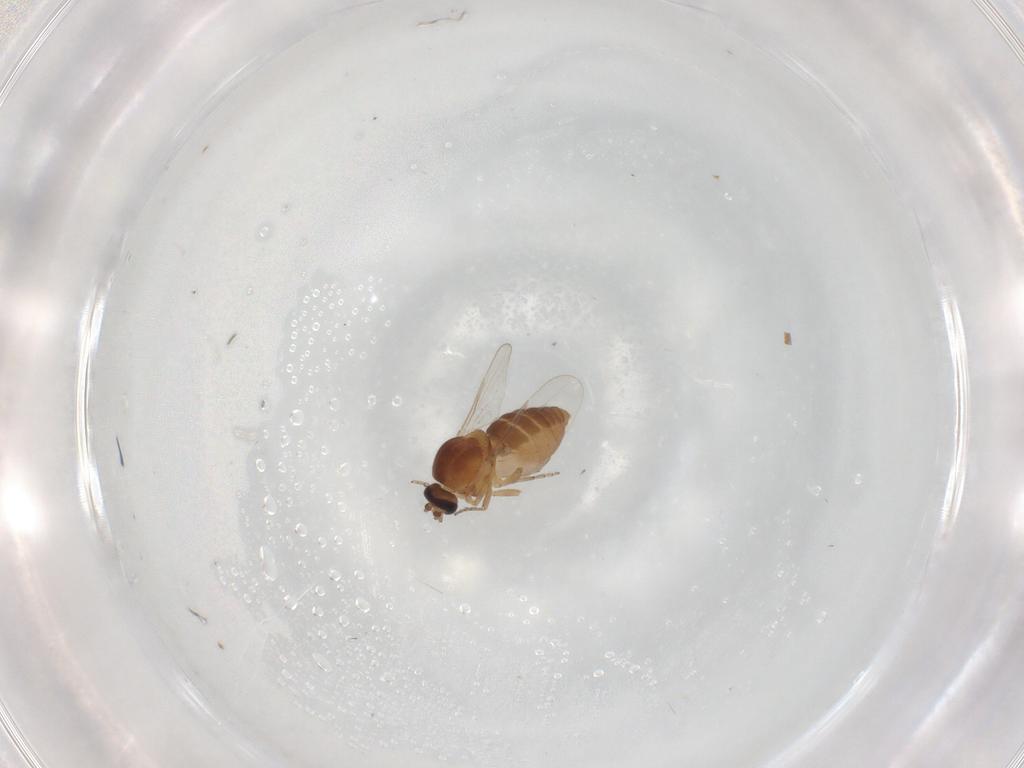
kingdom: Animalia
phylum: Arthropoda
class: Insecta
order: Diptera
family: Ceratopogonidae
